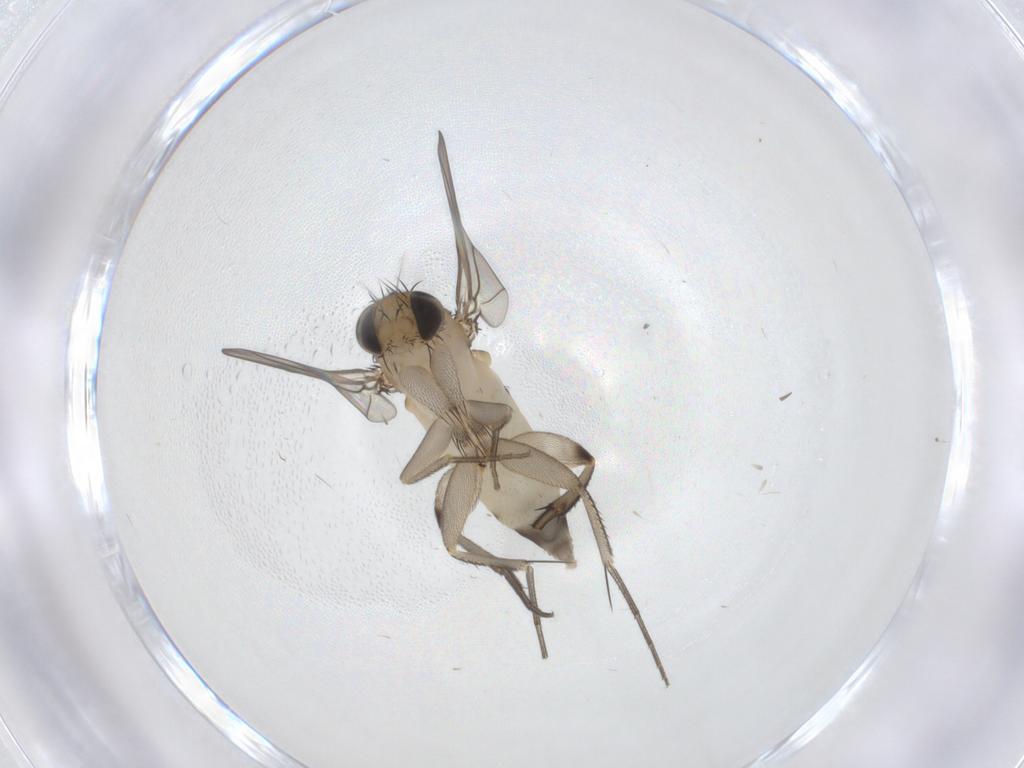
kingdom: Animalia
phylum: Arthropoda
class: Insecta
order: Diptera
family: Phoridae
